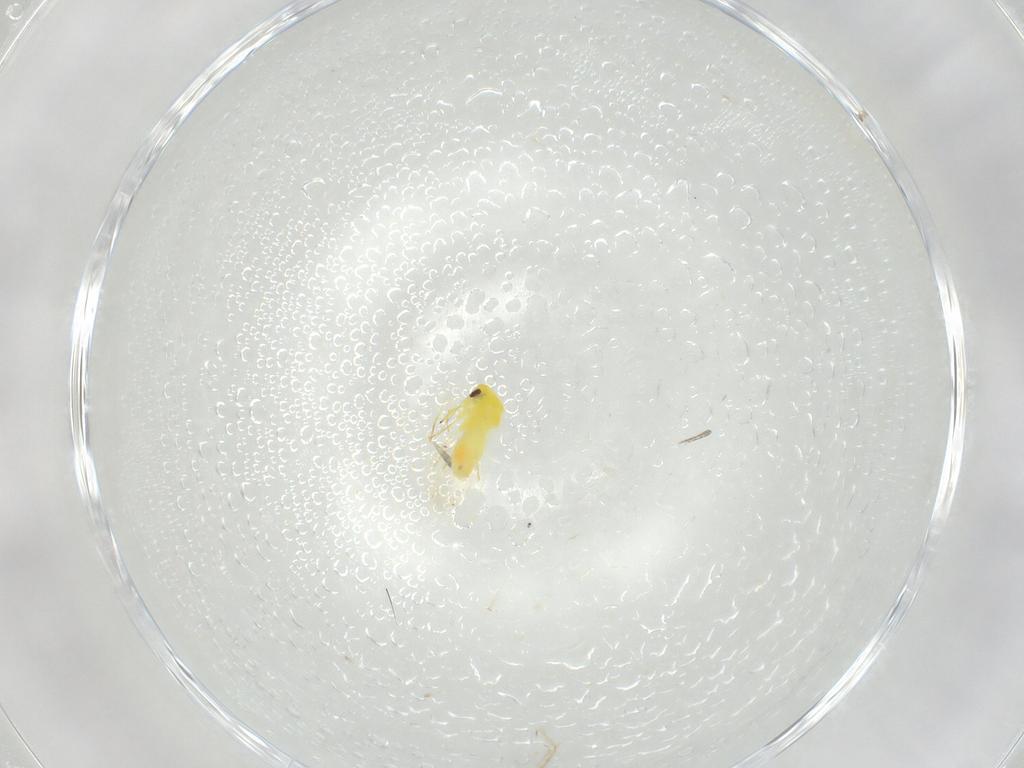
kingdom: Animalia
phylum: Arthropoda
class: Insecta
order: Hemiptera
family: Aleyrodidae
